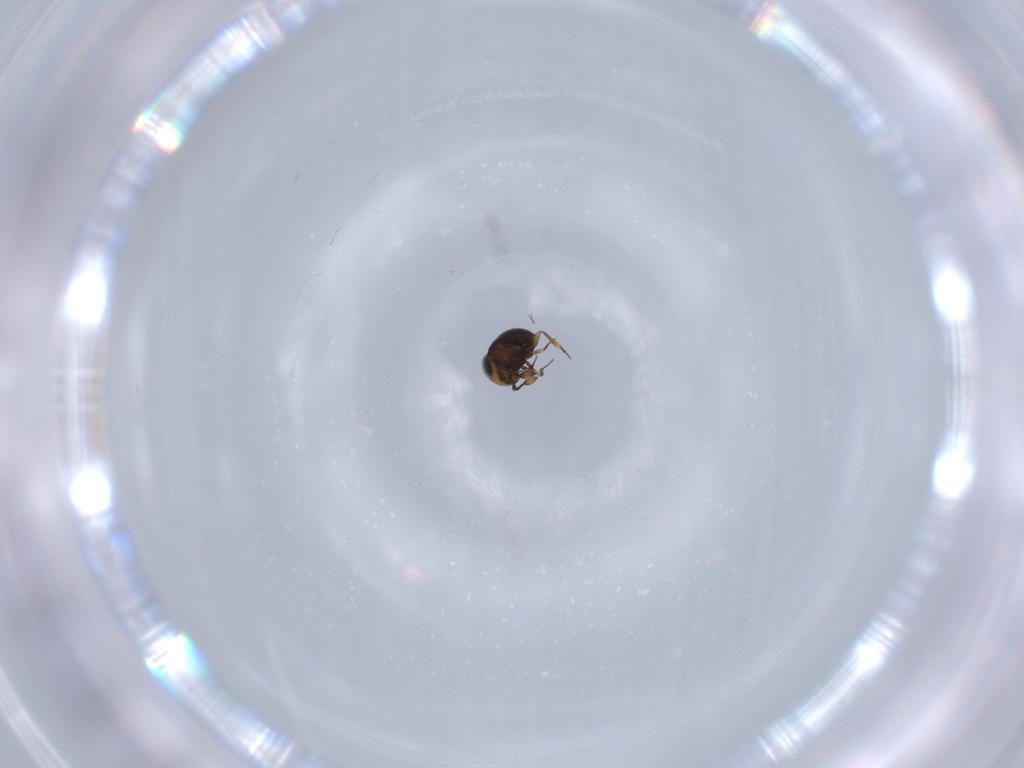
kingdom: Animalia
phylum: Arthropoda
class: Insecta
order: Hymenoptera
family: Scelionidae
